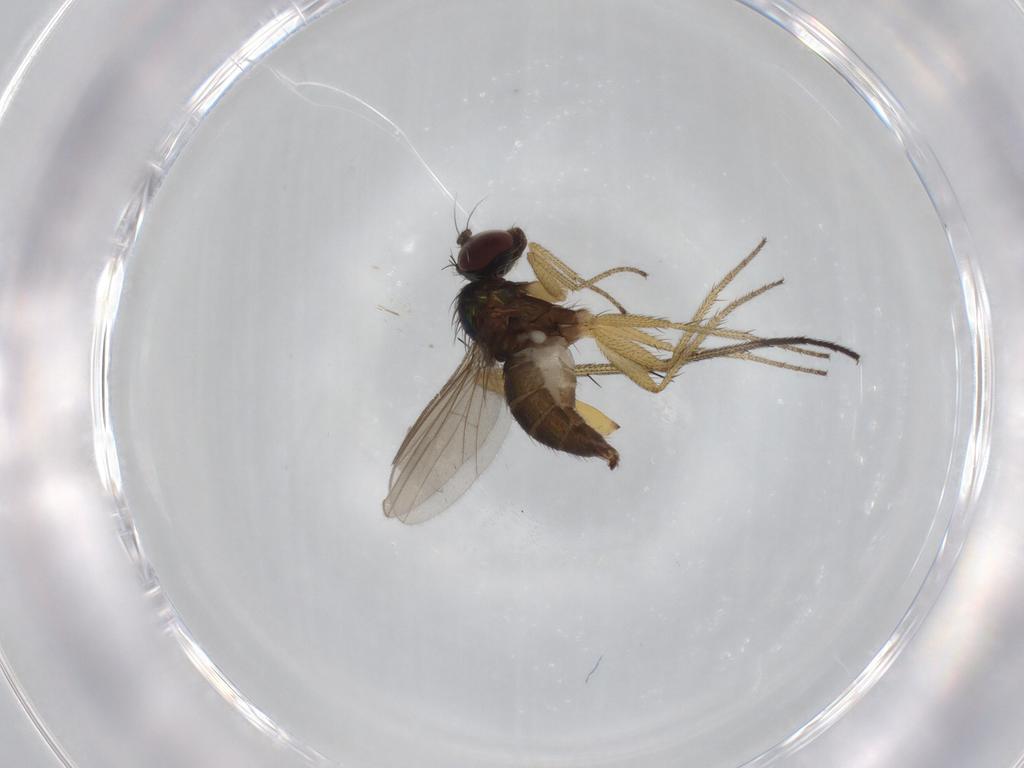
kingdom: Animalia
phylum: Arthropoda
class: Insecta
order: Diptera
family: Dolichopodidae
